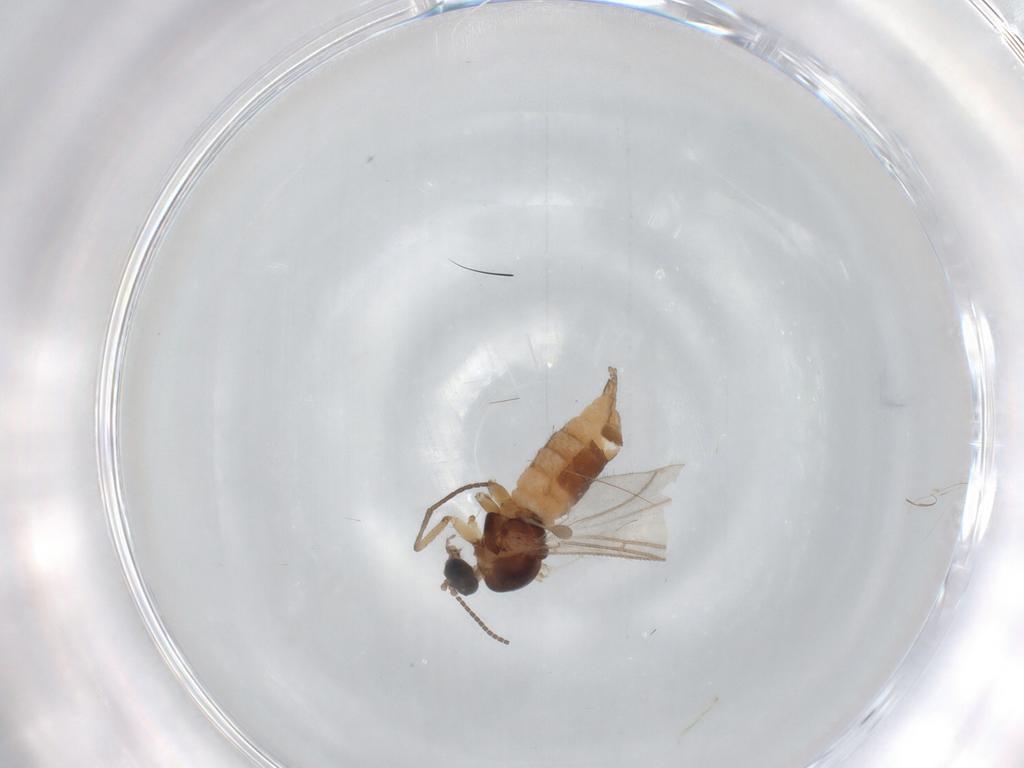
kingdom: Animalia
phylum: Arthropoda
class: Insecta
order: Diptera
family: Sciaridae
